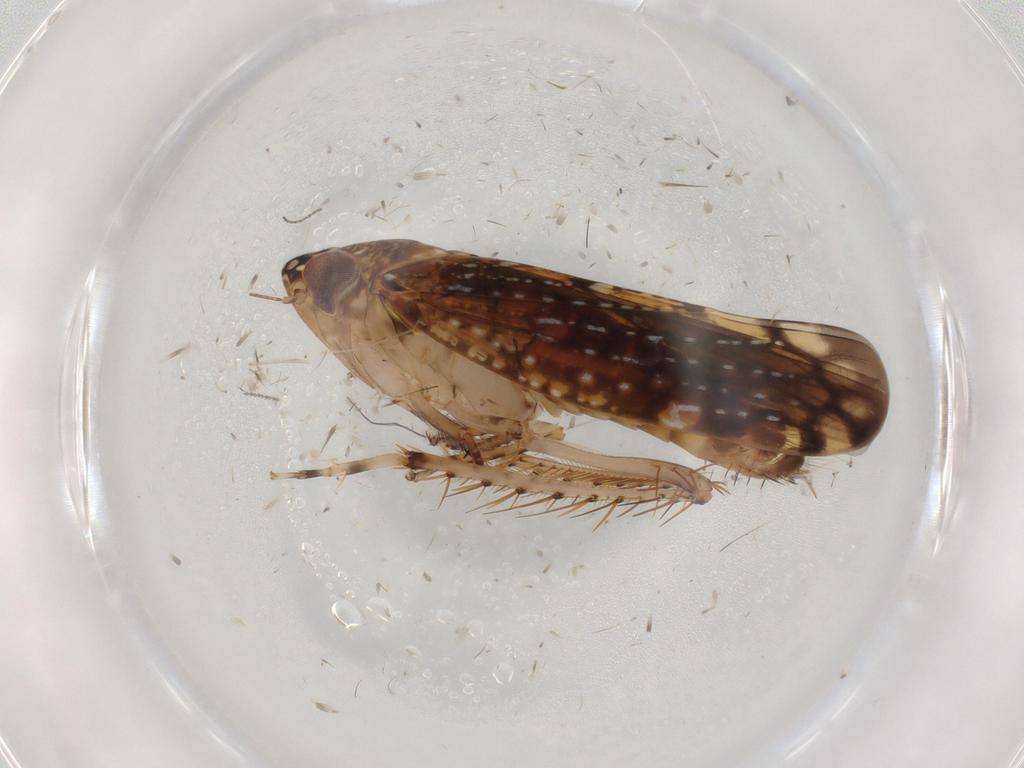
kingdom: Animalia
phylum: Arthropoda
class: Insecta
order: Hemiptera
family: Cicadellidae
